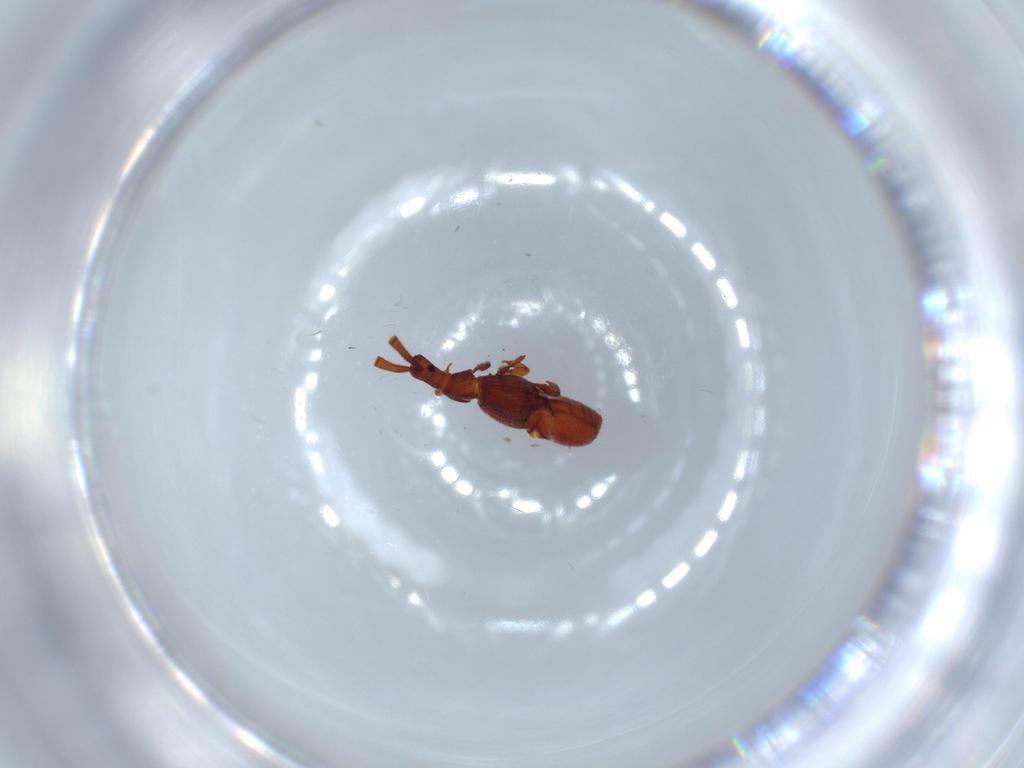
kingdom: Animalia
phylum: Arthropoda
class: Insecta
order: Coleoptera
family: Staphylinidae
